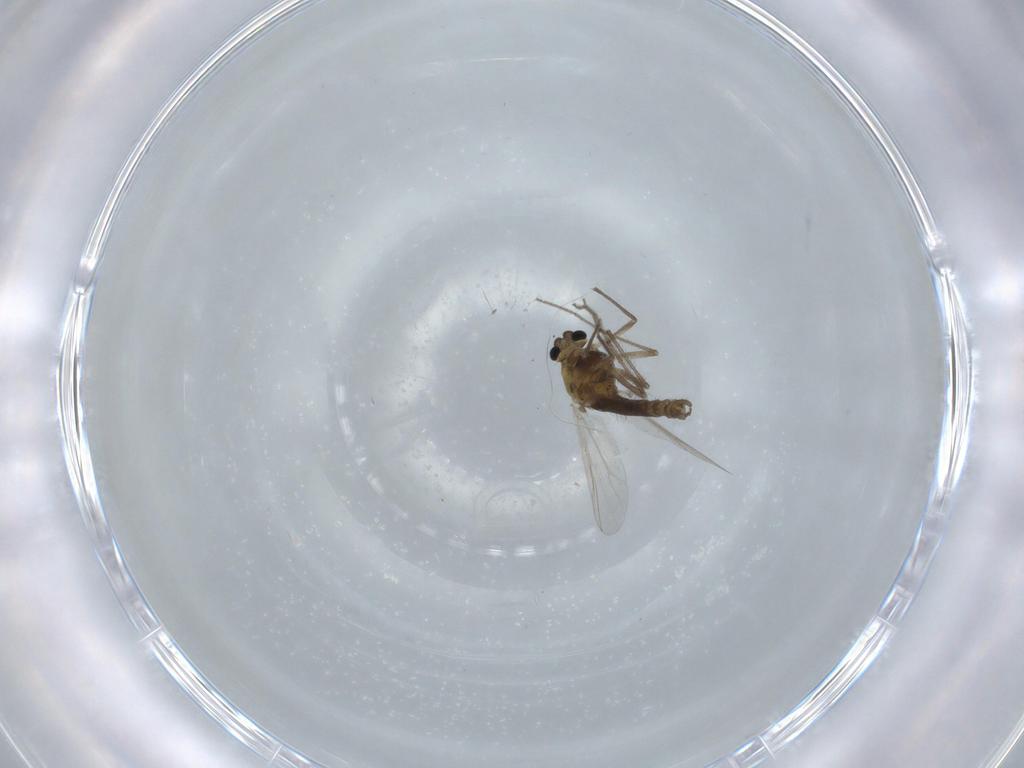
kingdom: Animalia
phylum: Arthropoda
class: Insecta
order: Diptera
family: Chironomidae
